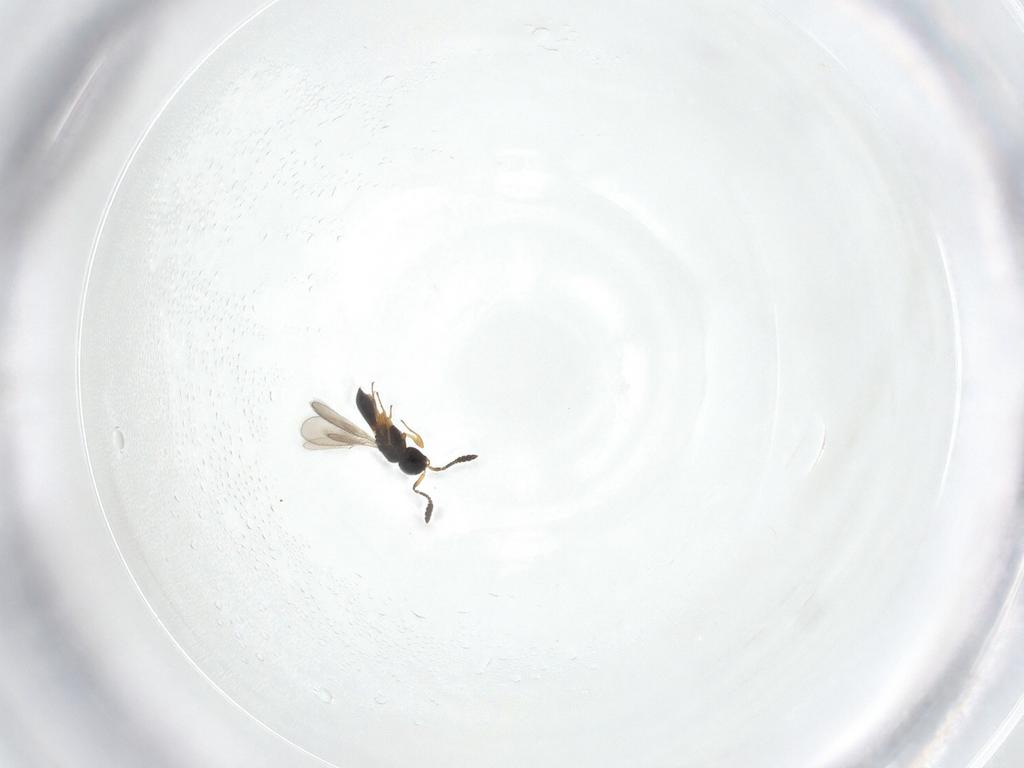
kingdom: Animalia
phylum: Arthropoda
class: Insecta
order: Hymenoptera
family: Scelionidae
